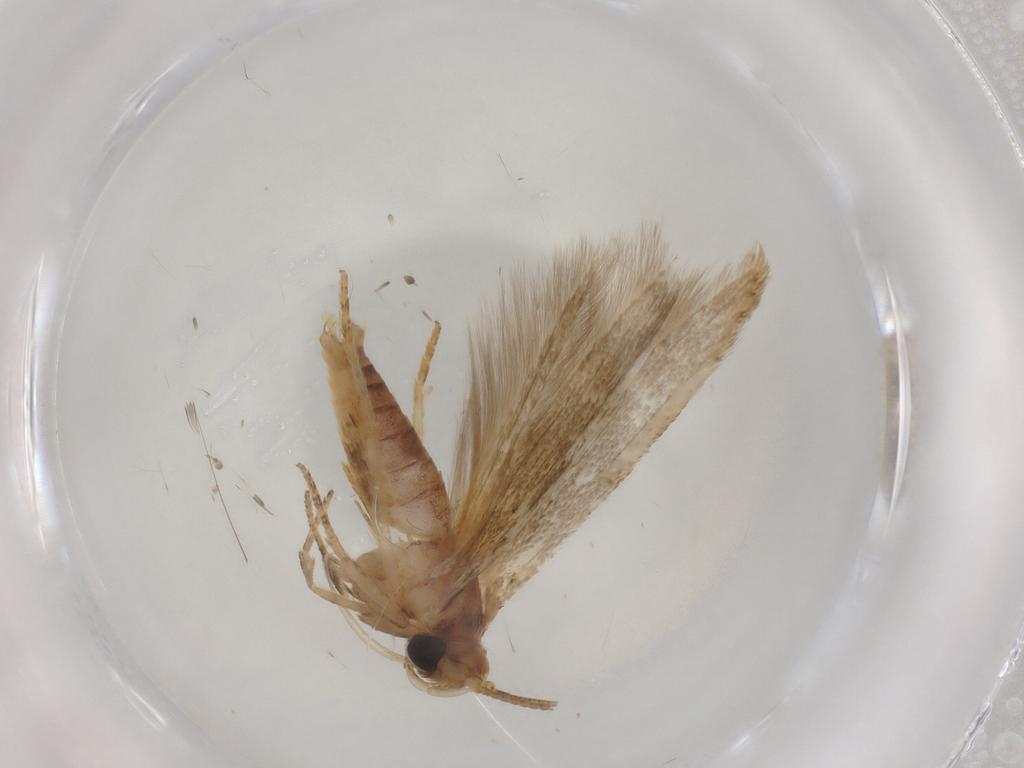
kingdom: Animalia
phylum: Arthropoda
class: Insecta
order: Lepidoptera
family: Blastobasidae
